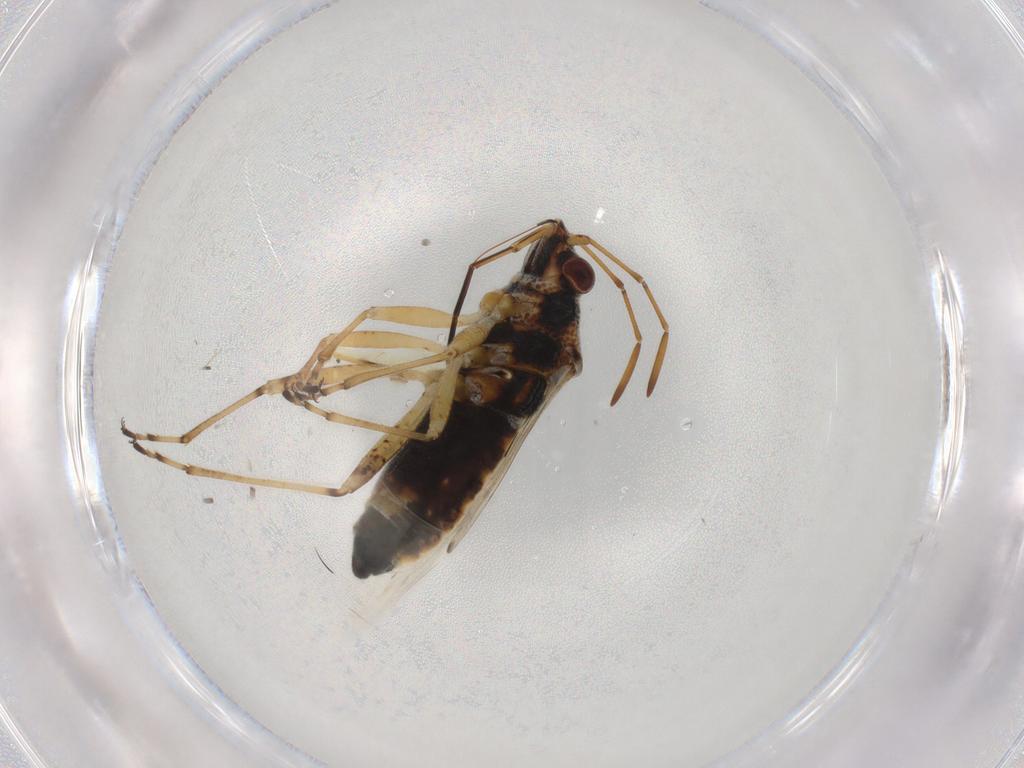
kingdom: Animalia
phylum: Arthropoda
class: Insecta
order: Hemiptera
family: Lygaeidae
